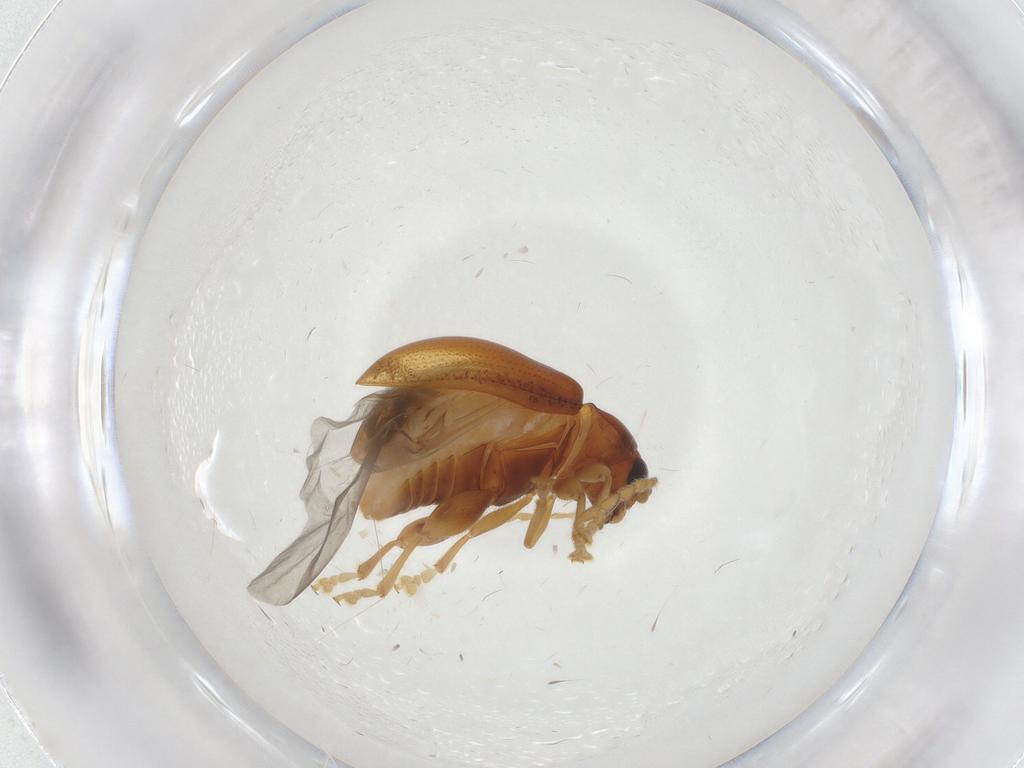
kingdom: Animalia
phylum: Arthropoda
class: Insecta
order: Coleoptera
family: Chrysomelidae
